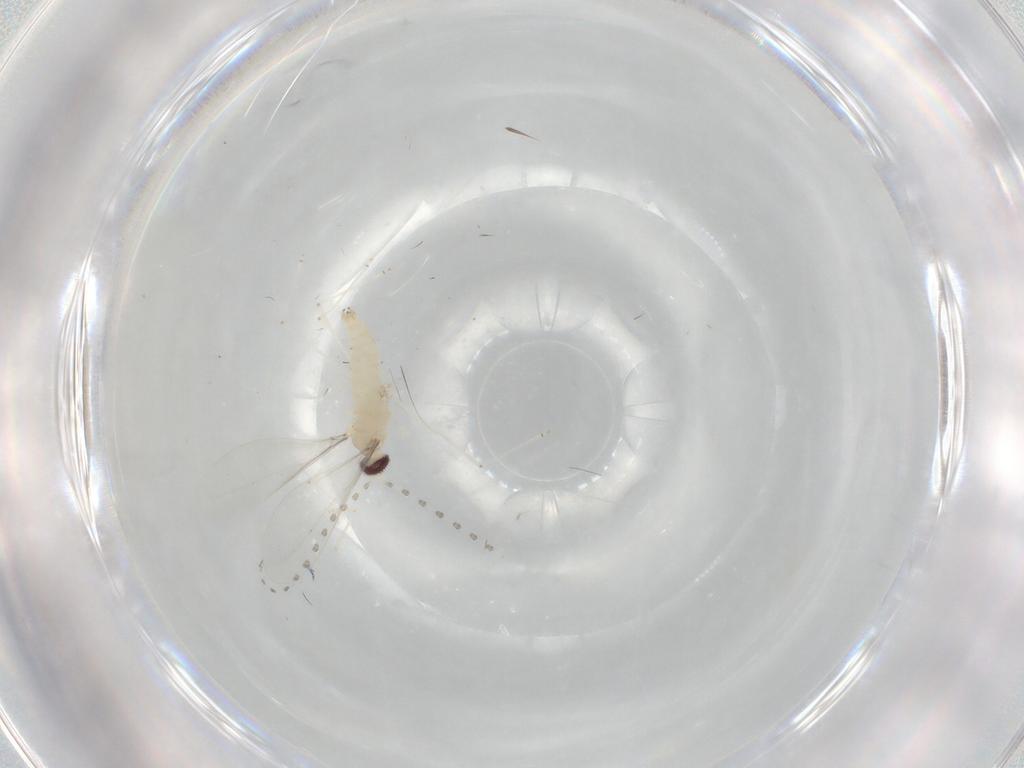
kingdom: Animalia
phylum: Arthropoda
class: Insecta
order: Diptera
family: Cecidomyiidae
